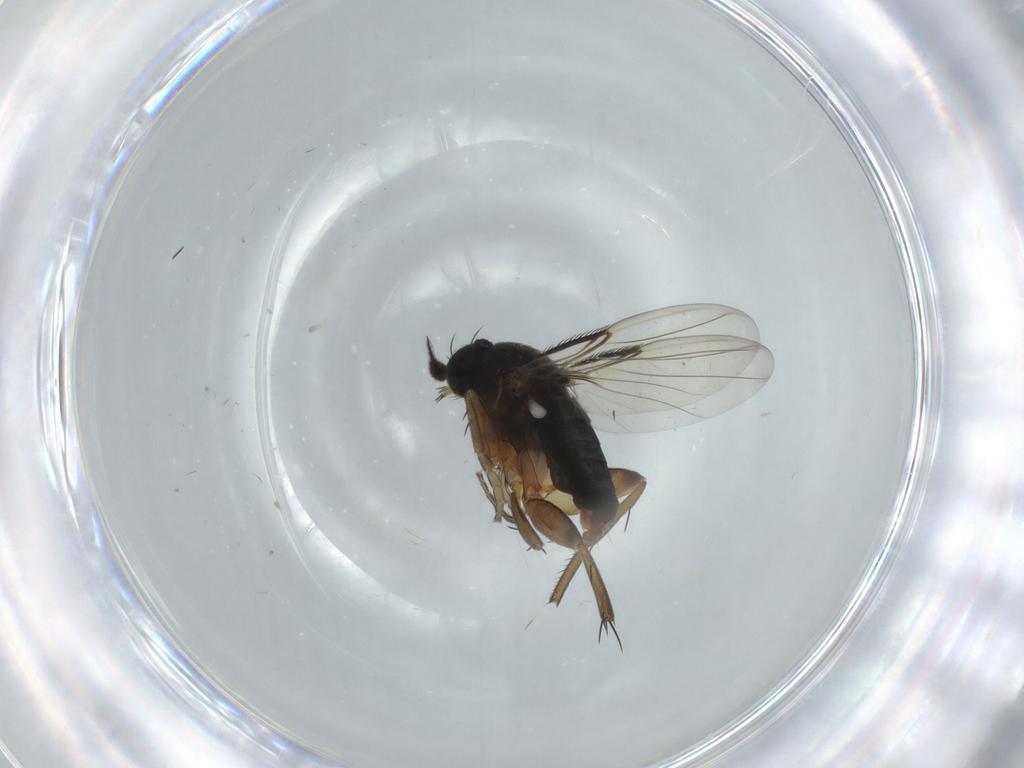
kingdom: Animalia
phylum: Arthropoda
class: Insecta
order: Diptera
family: Phoridae
